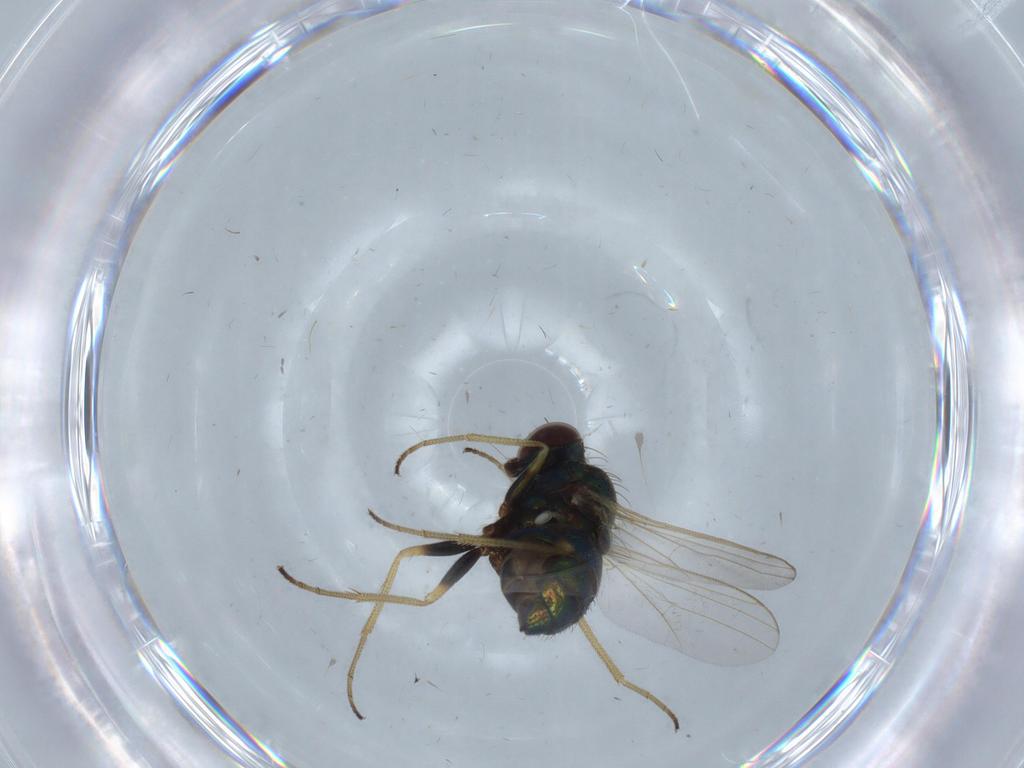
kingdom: Animalia
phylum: Arthropoda
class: Insecta
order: Diptera
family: Dolichopodidae
